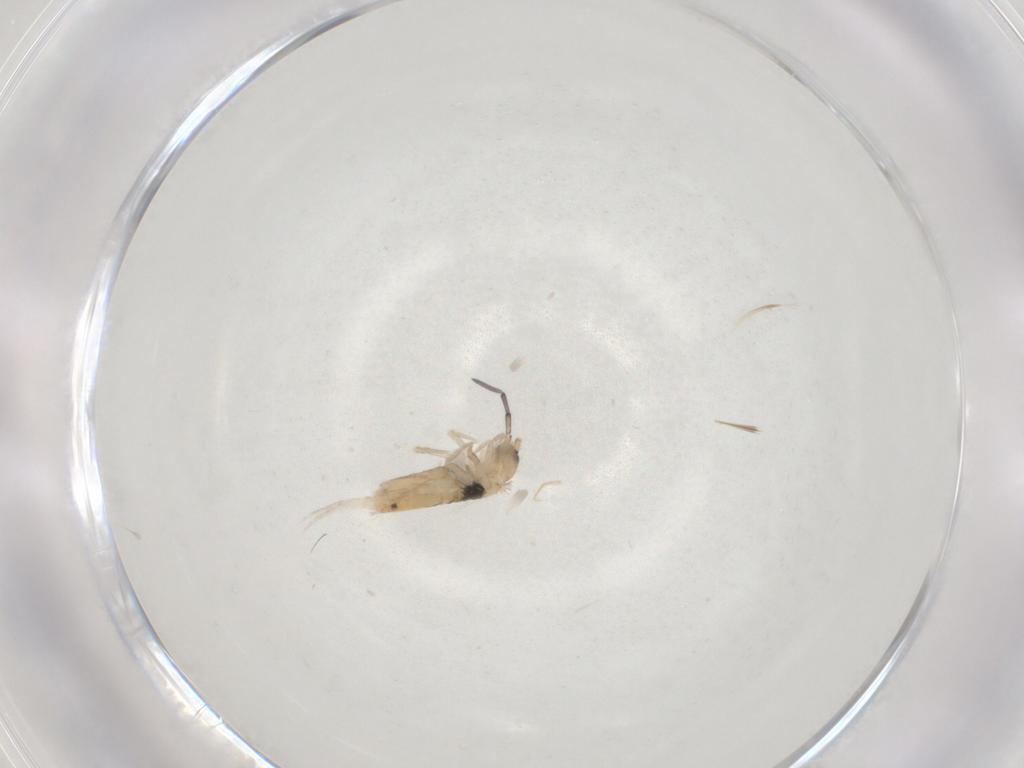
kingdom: Animalia
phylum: Arthropoda
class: Collembola
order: Entomobryomorpha
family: Entomobryidae
